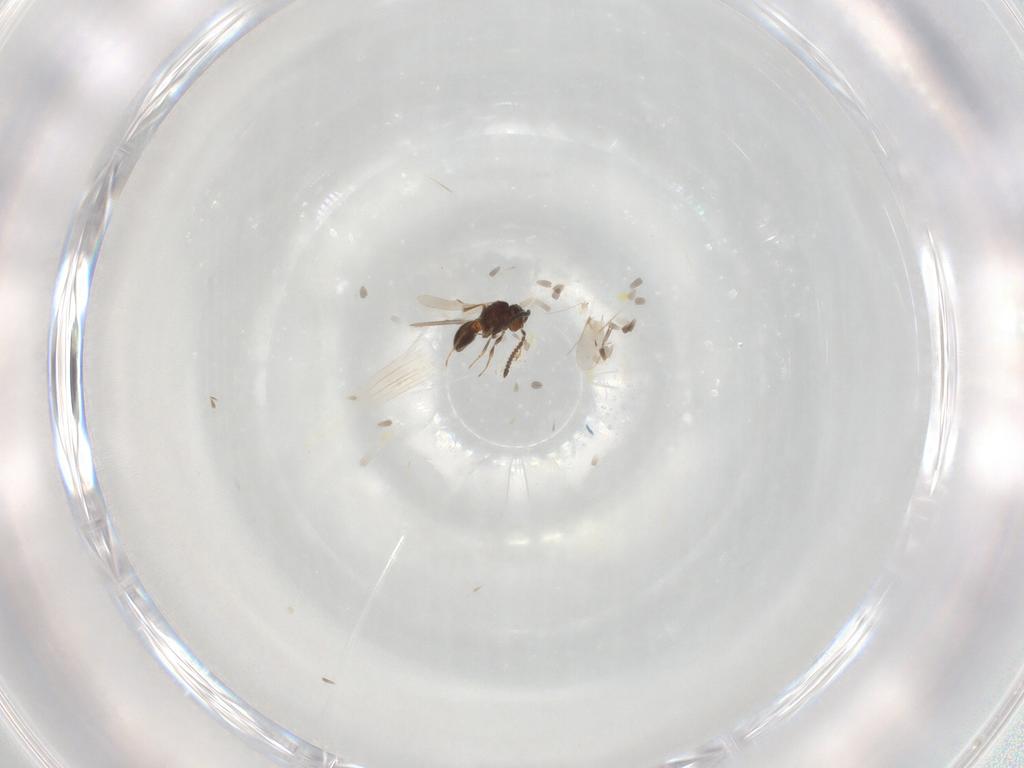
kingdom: Animalia
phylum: Arthropoda
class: Insecta
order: Hymenoptera
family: Scelionidae
